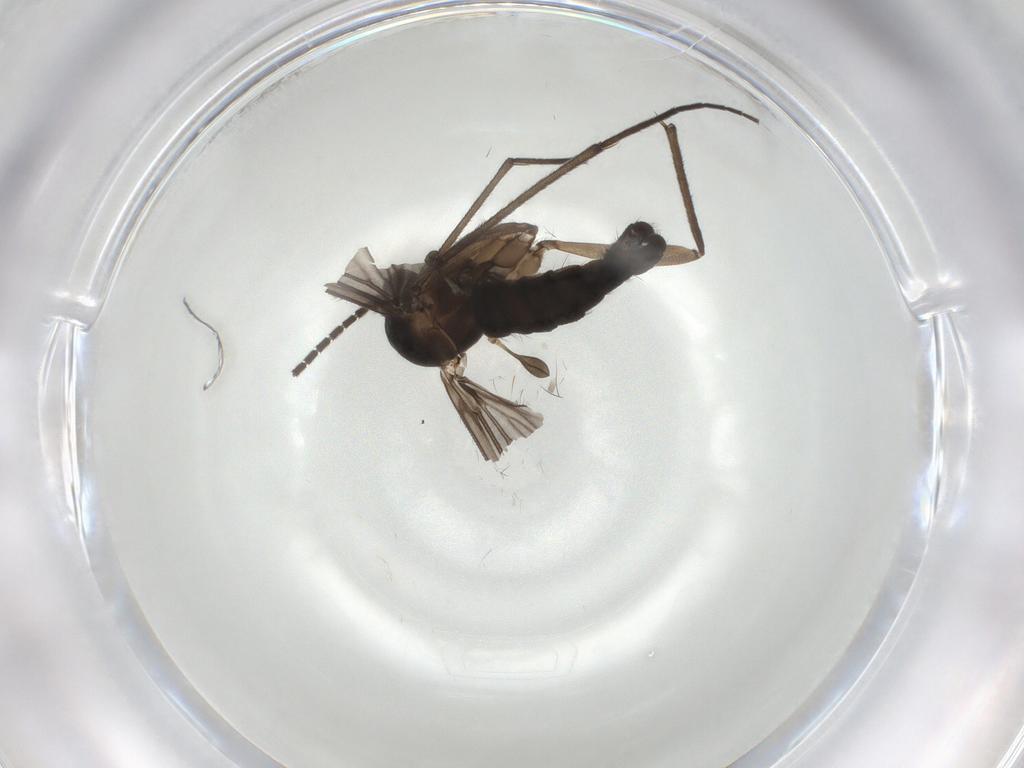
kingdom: Animalia
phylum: Arthropoda
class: Insecta
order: Diptera
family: Sciaridae
